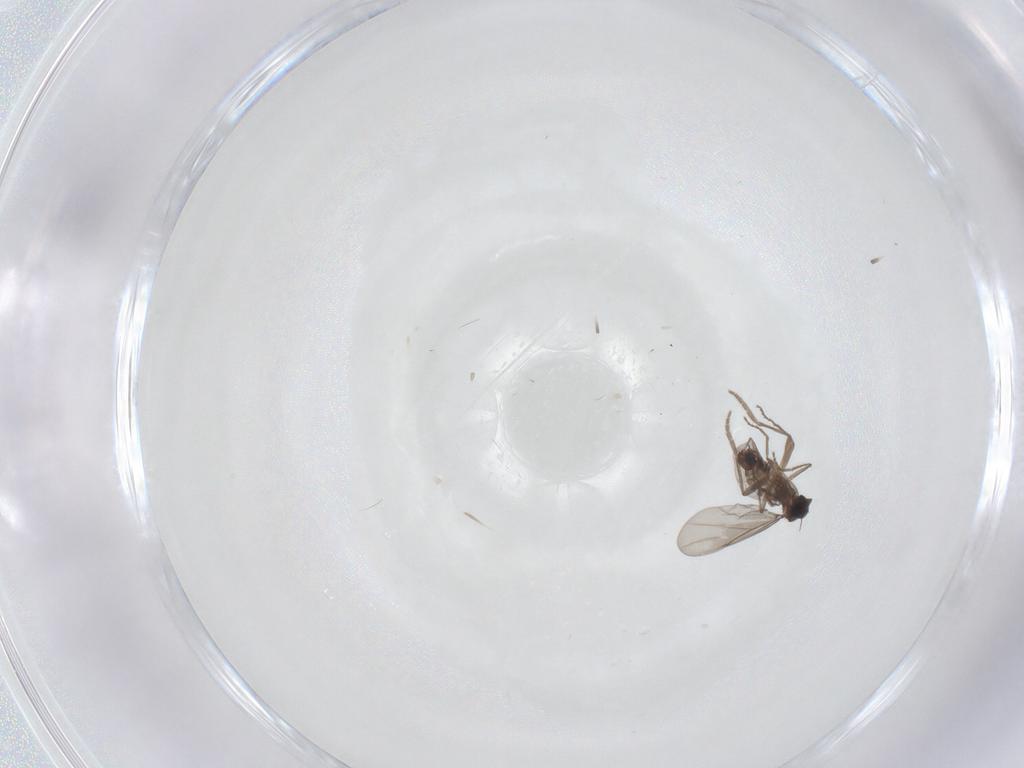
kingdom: Animalia
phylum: Arthropoda
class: Insecta
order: Diptera
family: Phoridae
